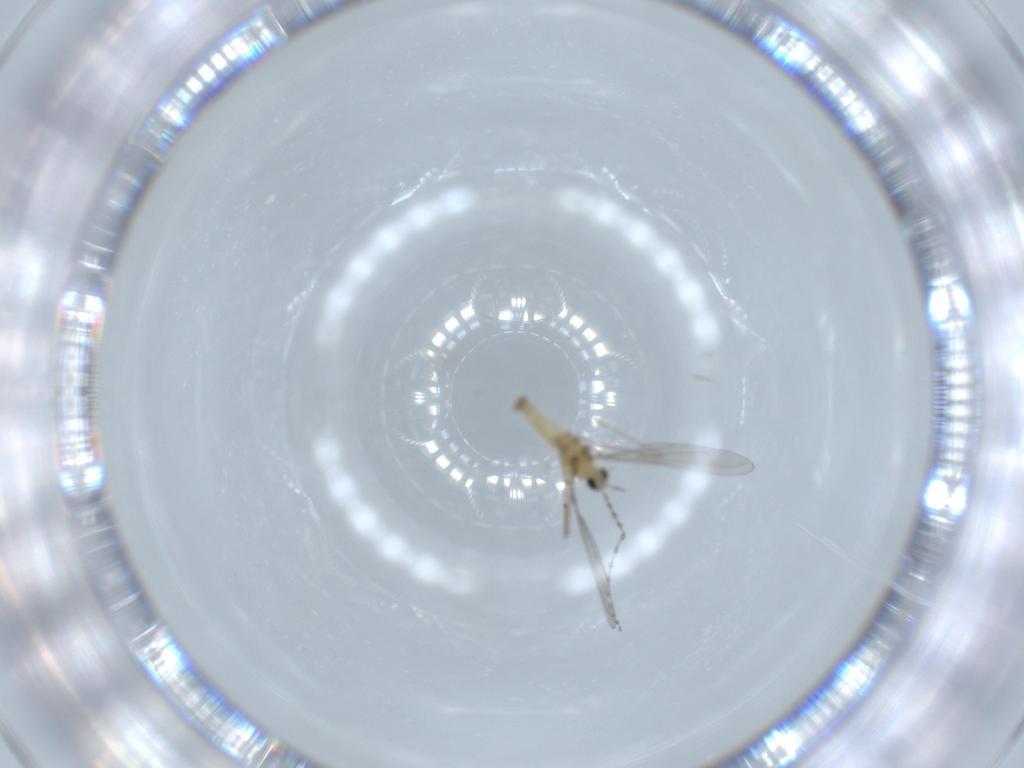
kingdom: Animalia
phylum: Arthropoda
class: Insecta
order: Diptera
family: Cecidomyiidae
